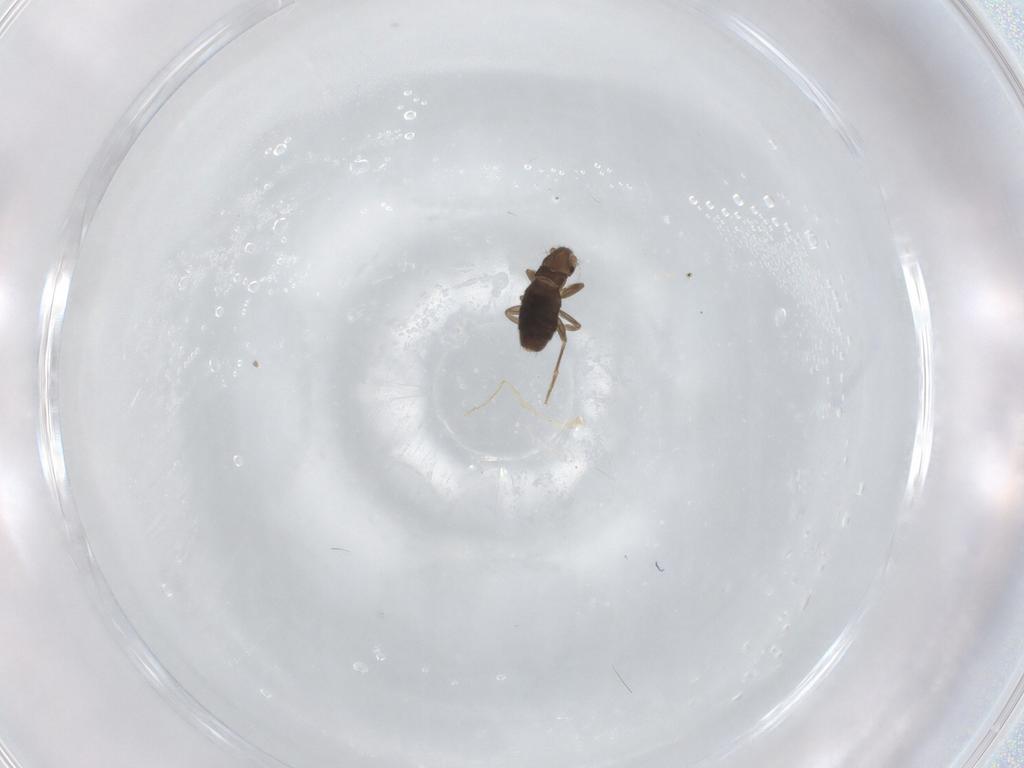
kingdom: Animalia
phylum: Arthropoda
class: Insecta
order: Diptera
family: Phoridae
